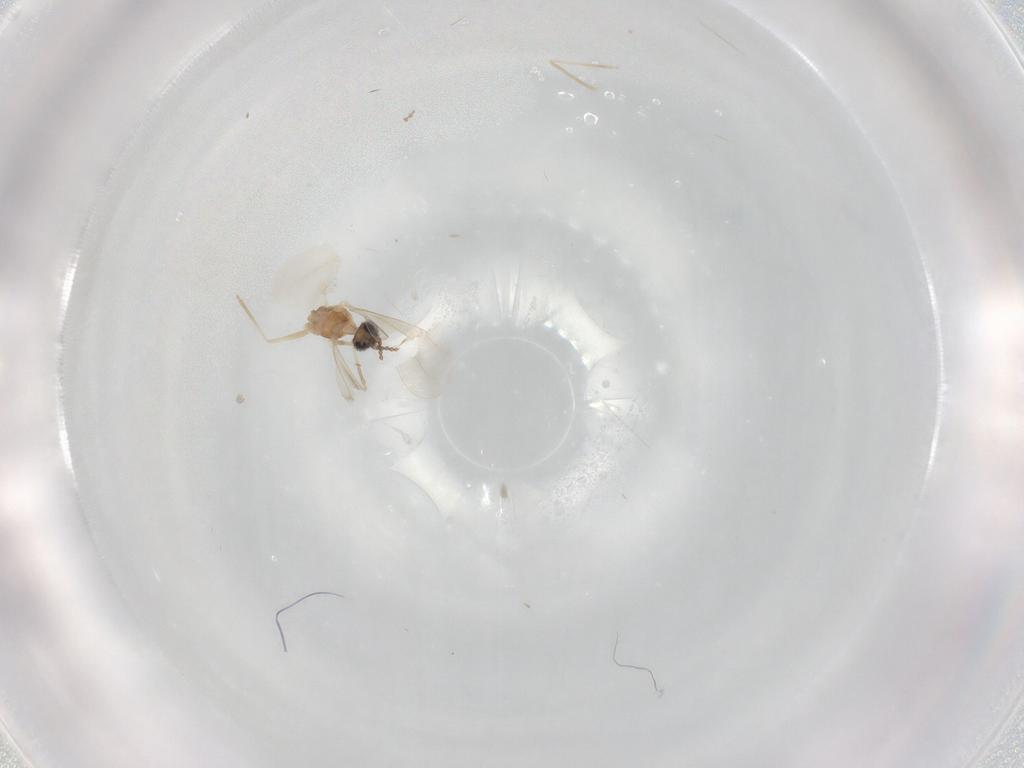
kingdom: Animalia
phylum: Arthropoda
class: Insecta
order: Diptera
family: Cecidomyiidae
